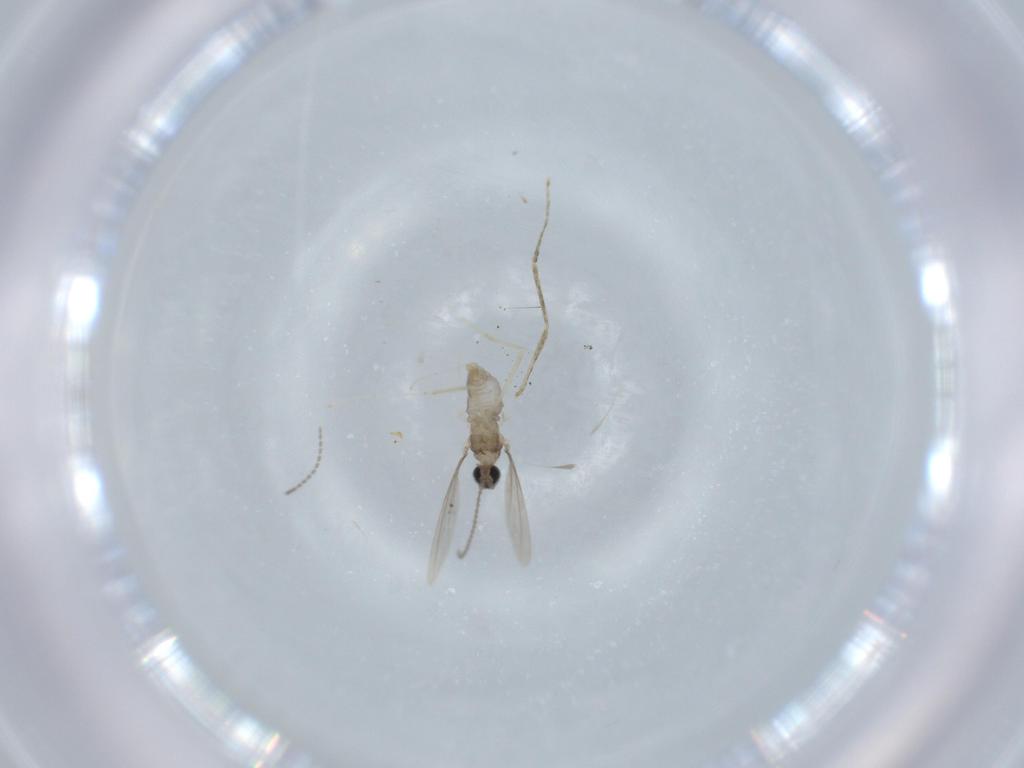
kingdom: Animalia
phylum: Arthropoda
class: Insecta
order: Diptera
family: Cecidomyiidae
